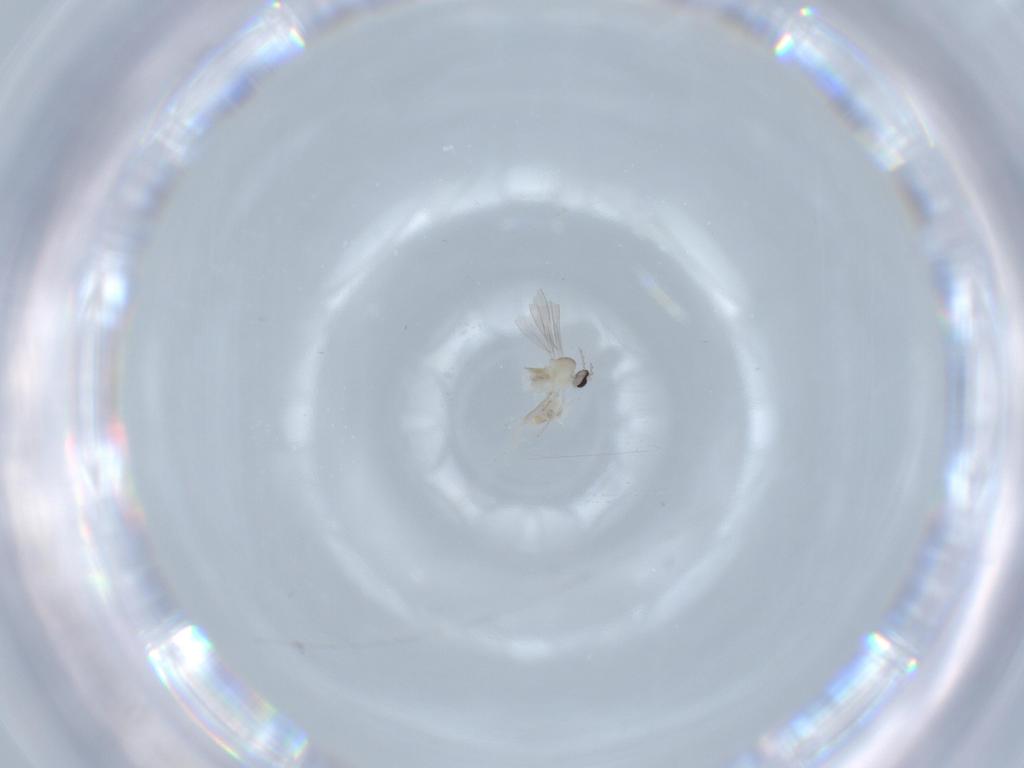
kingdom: Animalia
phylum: Arthropoda
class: Insecta
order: Diptera
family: Cecidomyiidae
